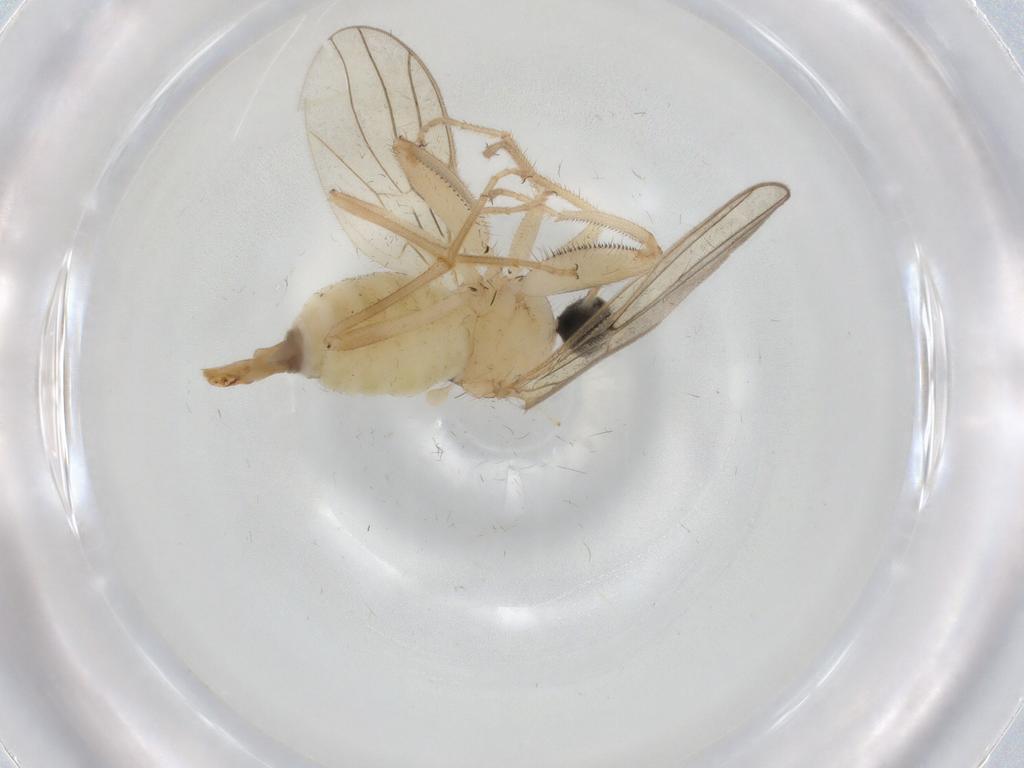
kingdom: Animalia
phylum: Arthropoda
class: Insecta
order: Diptera
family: Hybotidae
